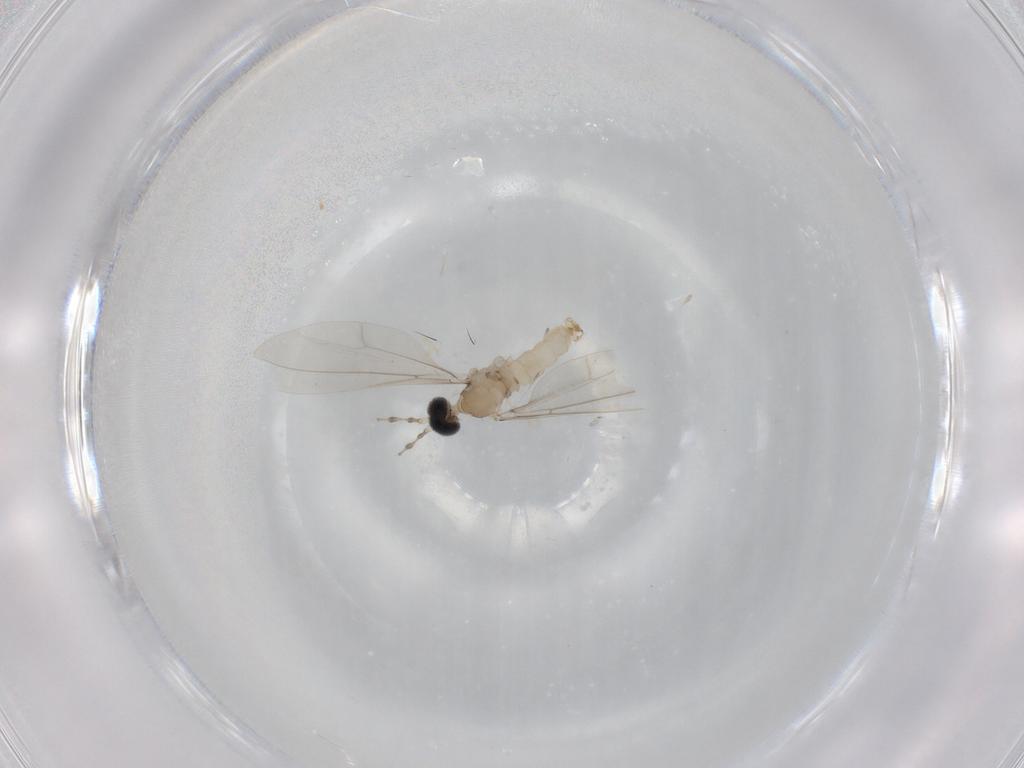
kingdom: Animalia
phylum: Arthropoda
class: Insecta
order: Diptera
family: Cecidomyiidae
